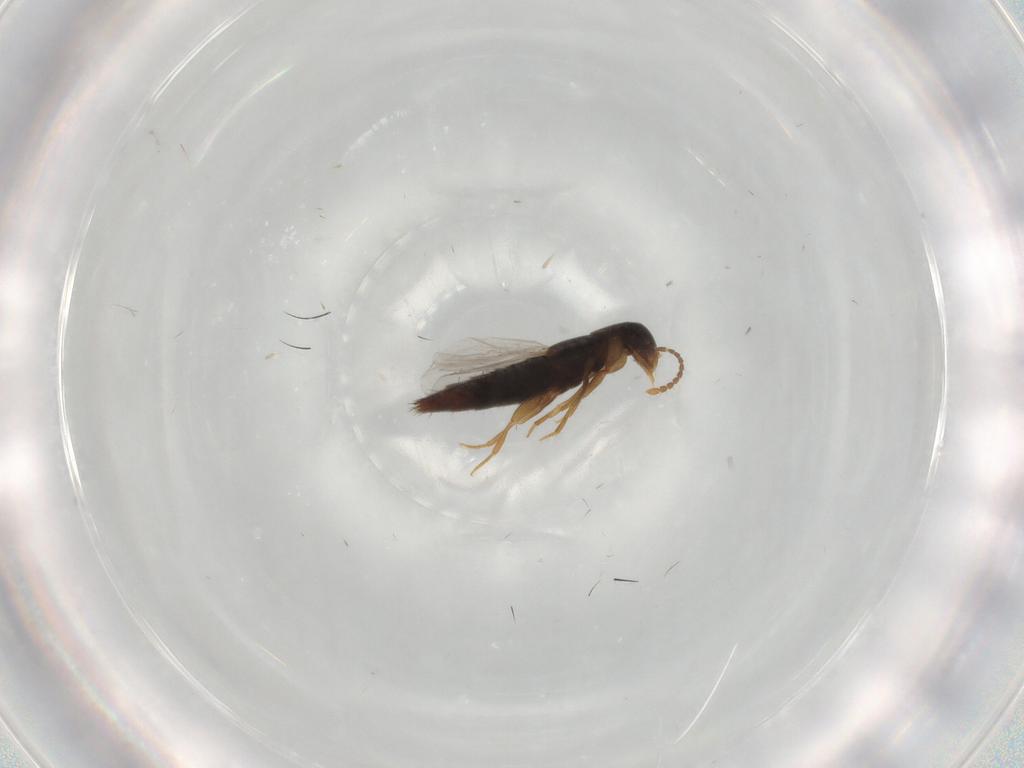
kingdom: Animalia
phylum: Arthropoda
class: Insecta
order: Coleoptera
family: Staphylinidae
